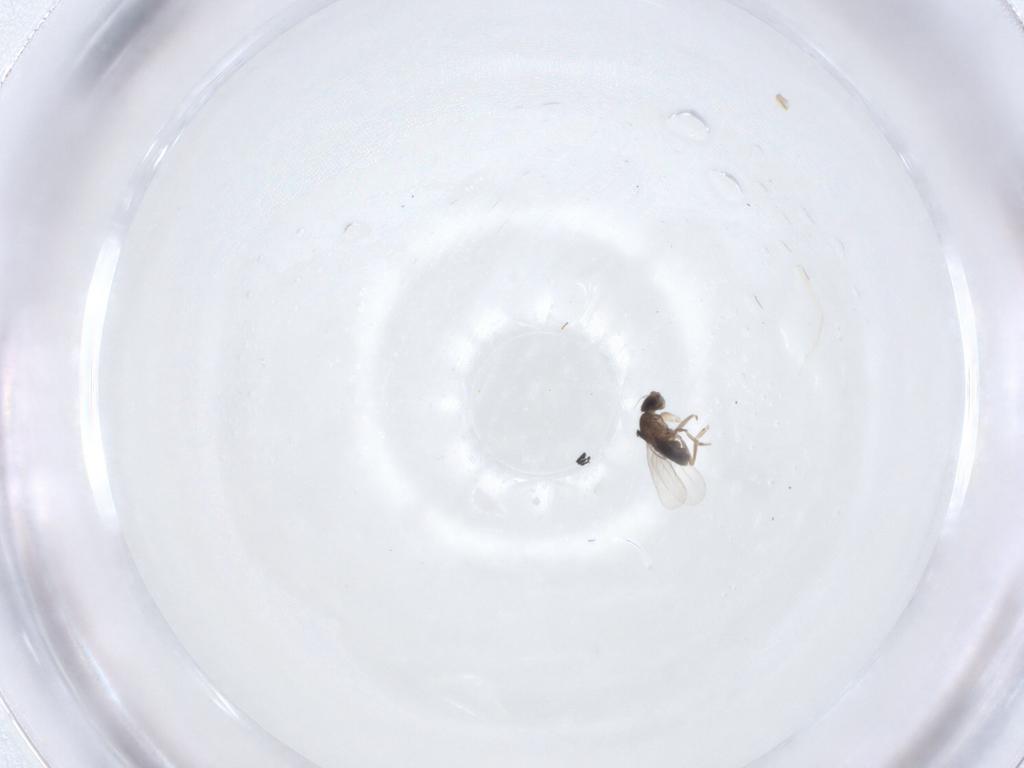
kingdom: Animalia
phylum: Arthropoda
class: Insecta
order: Diptera
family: Phoridae
